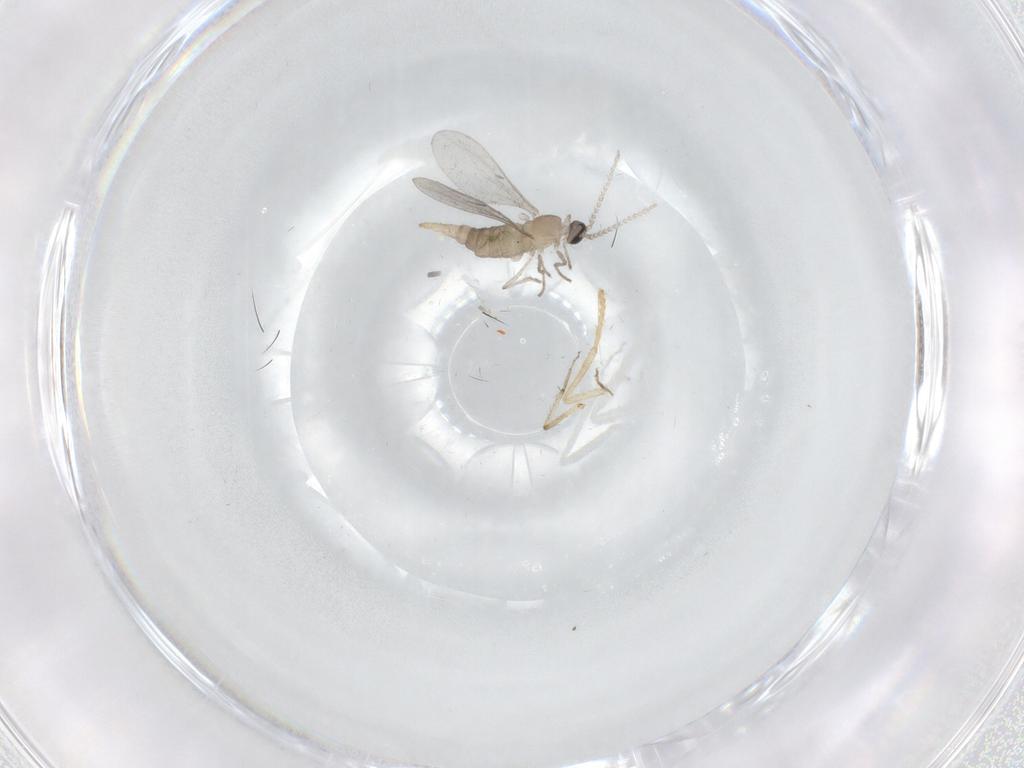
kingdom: Animalia
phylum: Arthropoda
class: Insecta
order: Diptera
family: Cecidomyiidae
